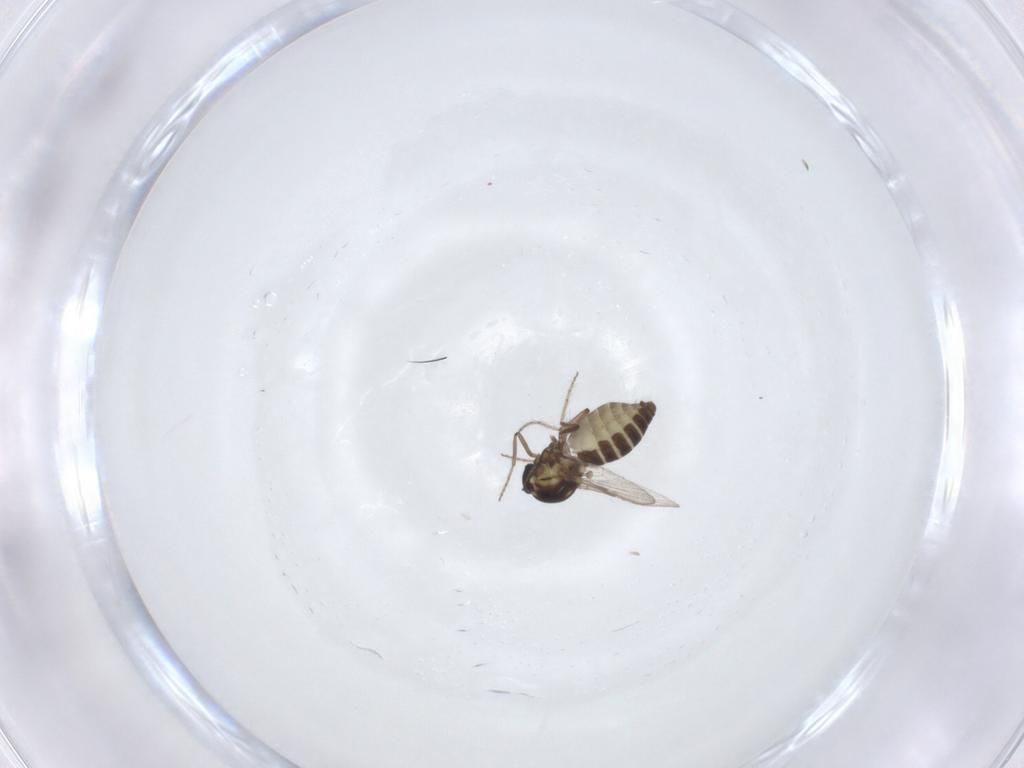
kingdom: Animalia
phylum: Arthropoda
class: Insecta
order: Diptera
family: Ceratopogonidae
